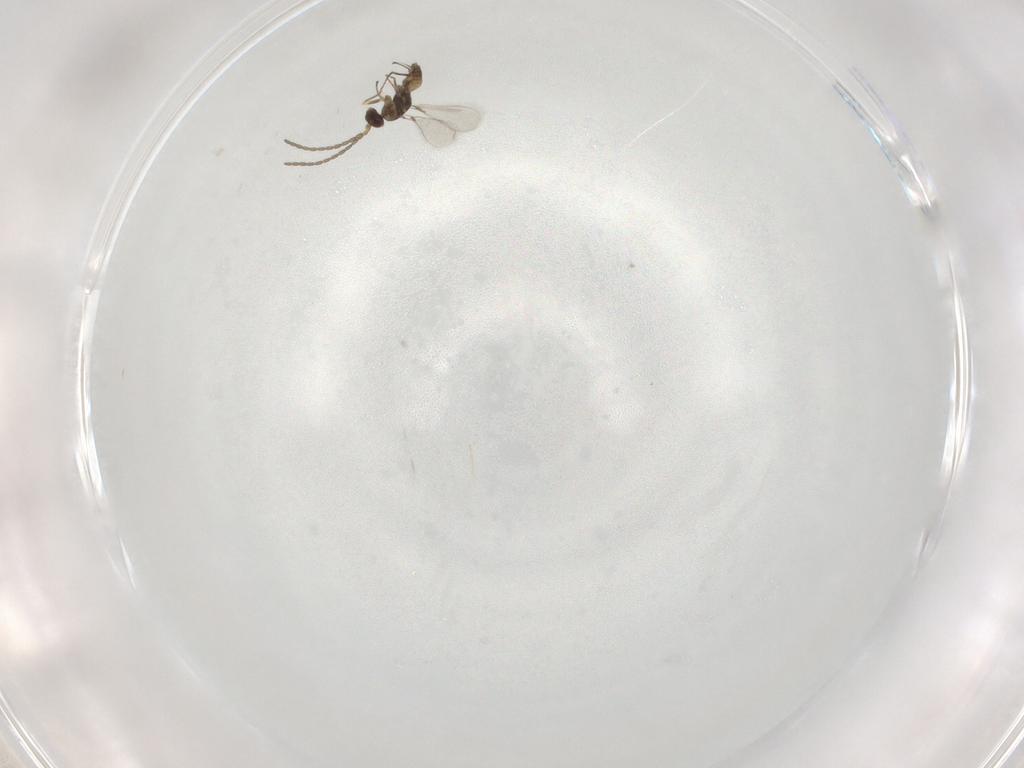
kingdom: Animalia
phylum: Arthropoda
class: Insecta
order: Hymenoptera
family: Mymaridae
